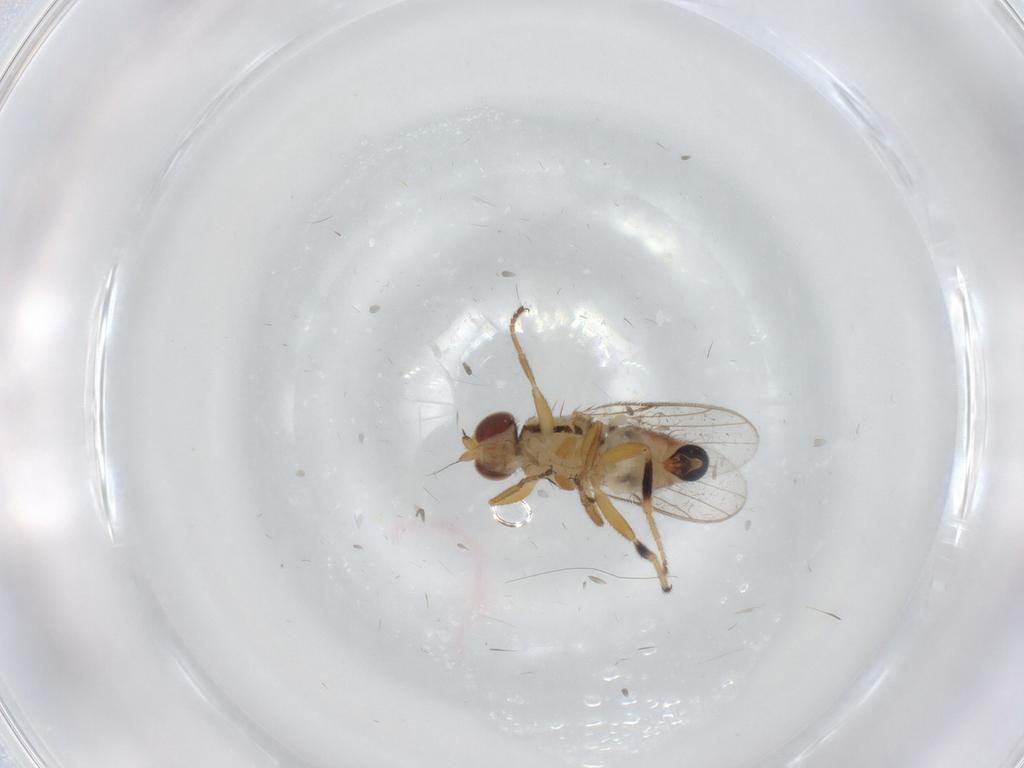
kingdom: Animalia
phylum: Arthropoda
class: Insecta
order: Diptera
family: Chloropidae
